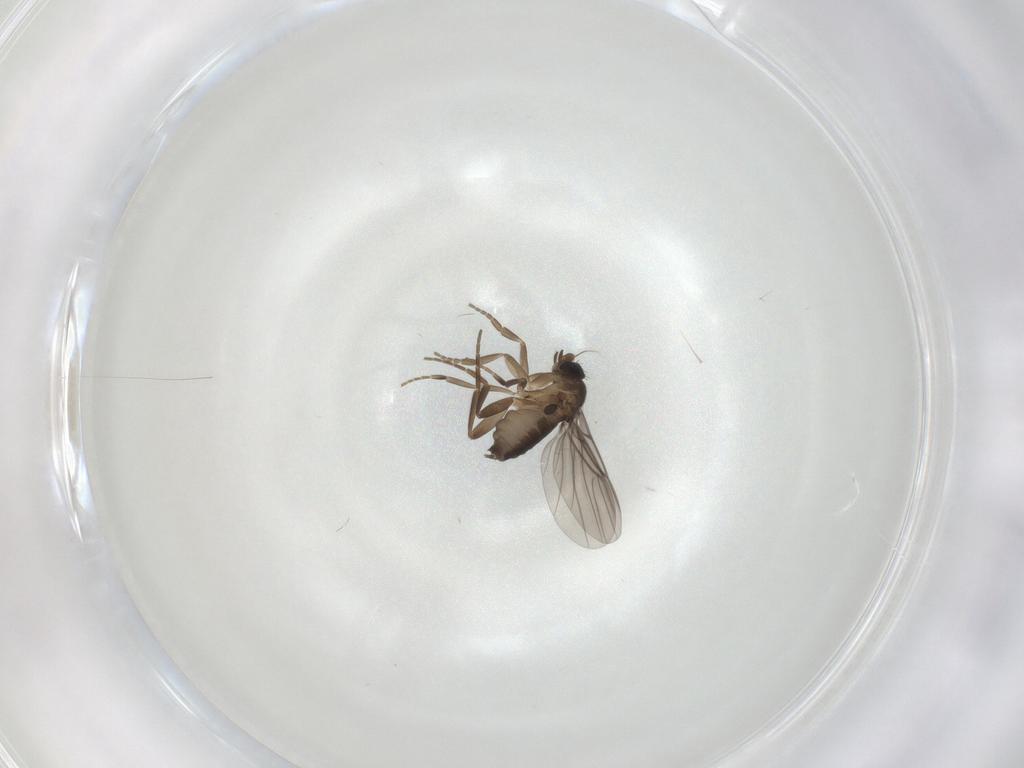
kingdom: Animalia
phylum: Arthropoda
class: Insecta
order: Diptera
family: Phoridae
